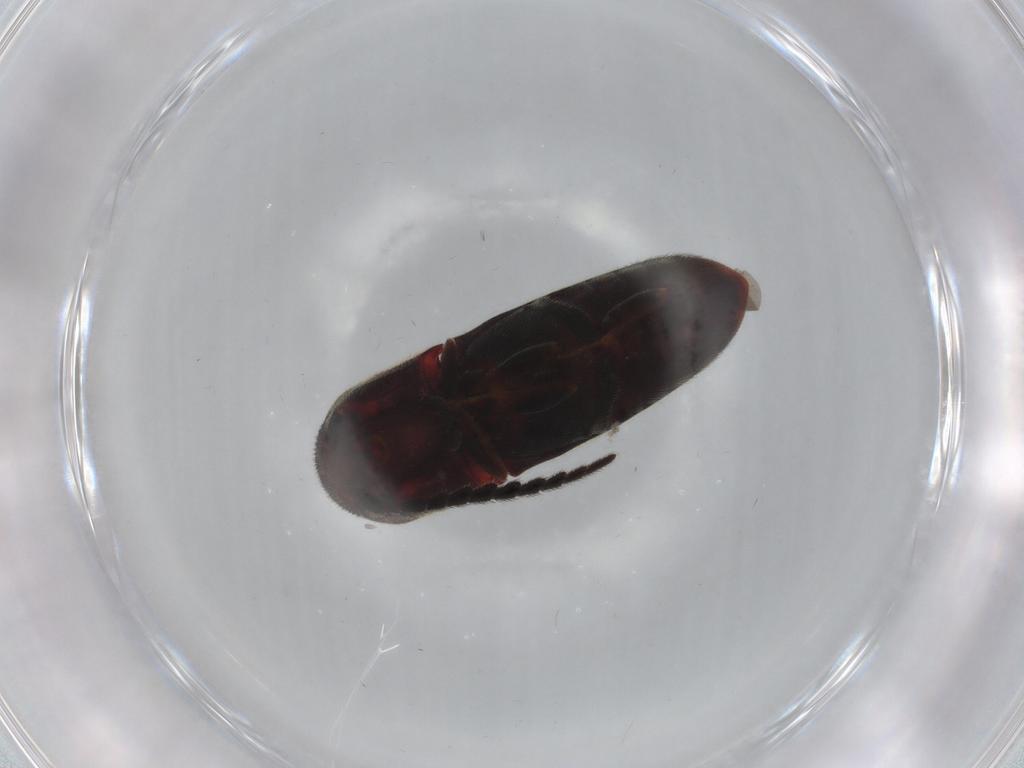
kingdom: Animalia
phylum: Arthropoda
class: Insecta
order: Coleoptera
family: Eucnemidae
